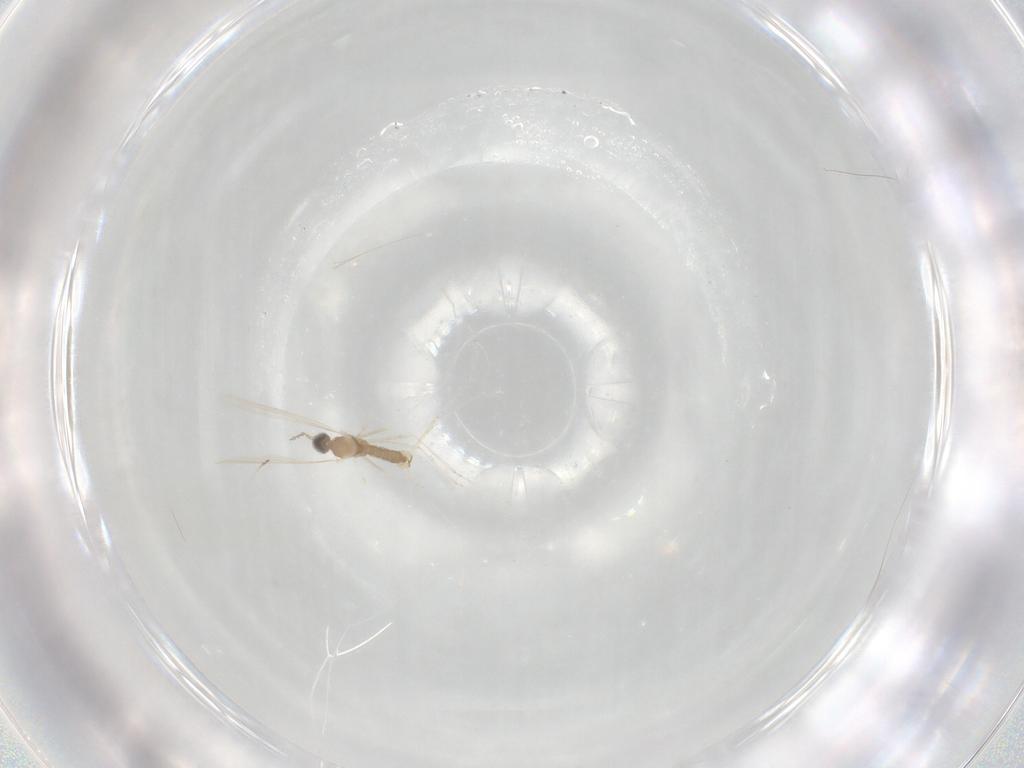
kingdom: Animalia
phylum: Arthropoda
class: Insecta
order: Diptera
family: Cecidomyiidae
